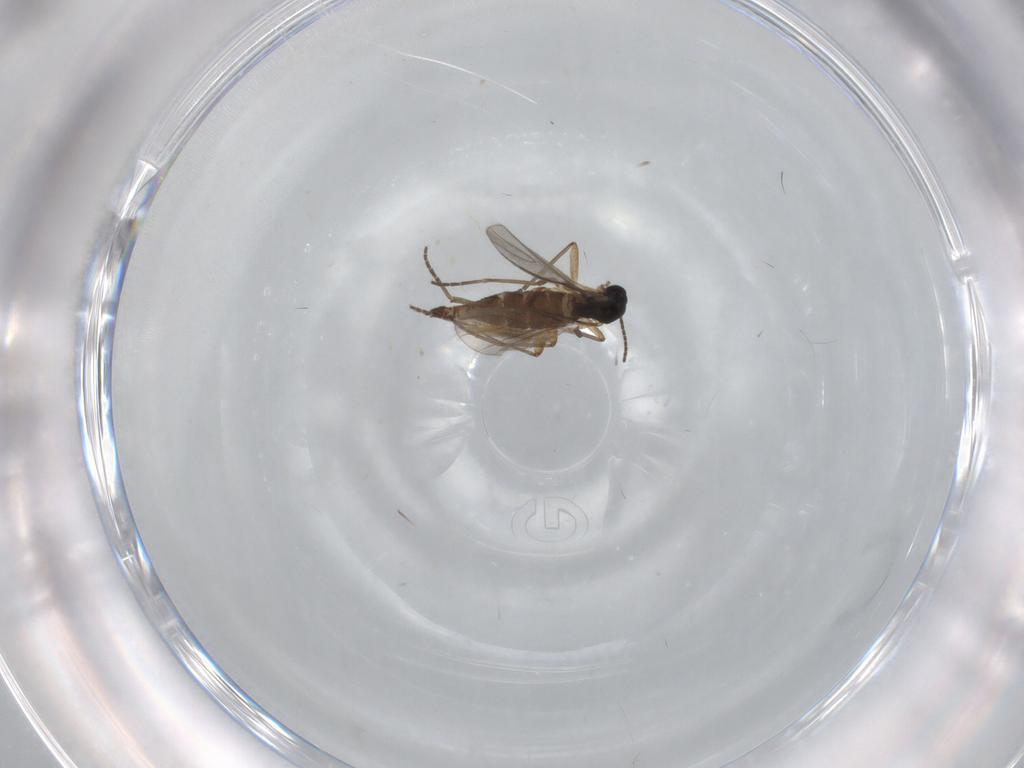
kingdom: Animalia
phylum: Arthropoda
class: Insecta
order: Diptera
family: Sciaridae
